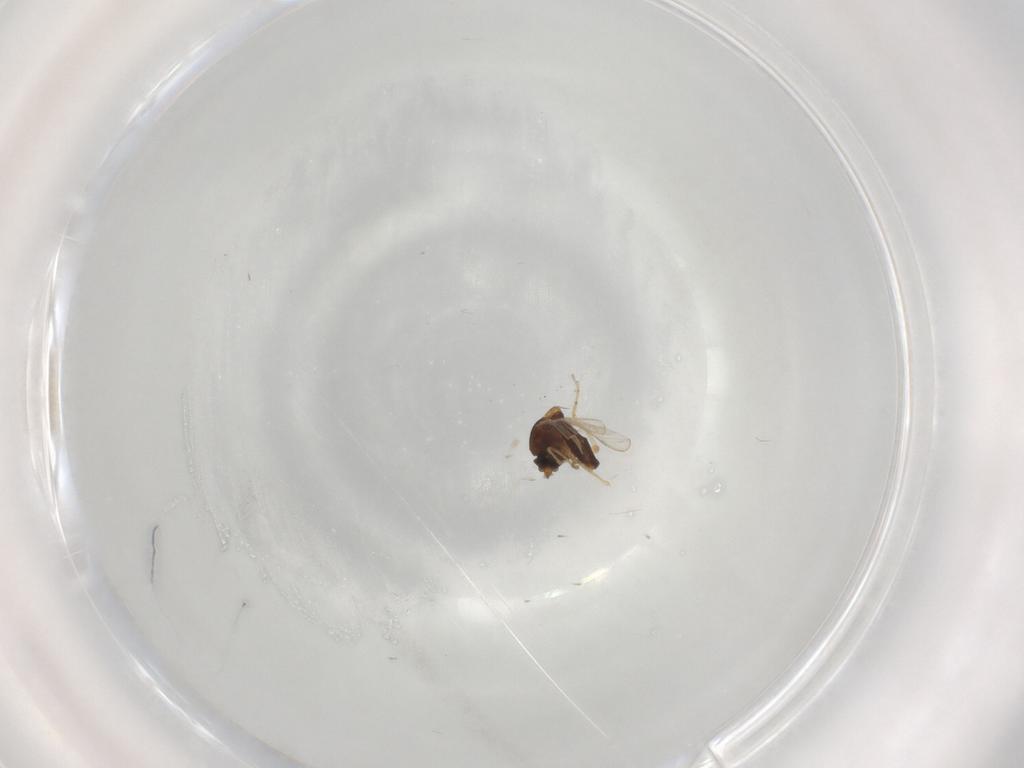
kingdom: Animalia
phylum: Arthropoda
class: Insecta
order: Diptera
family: Ceratopogonidae
